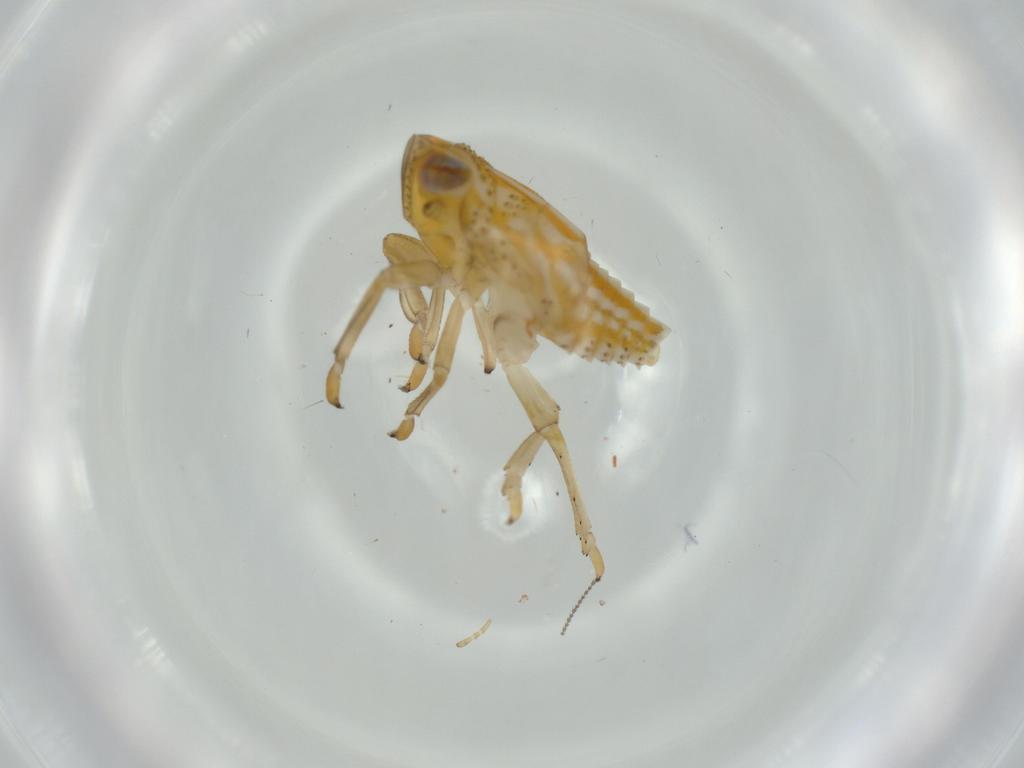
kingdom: Animalia
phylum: Arthropoda
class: Insecta
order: Hemiptera
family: Issidae
